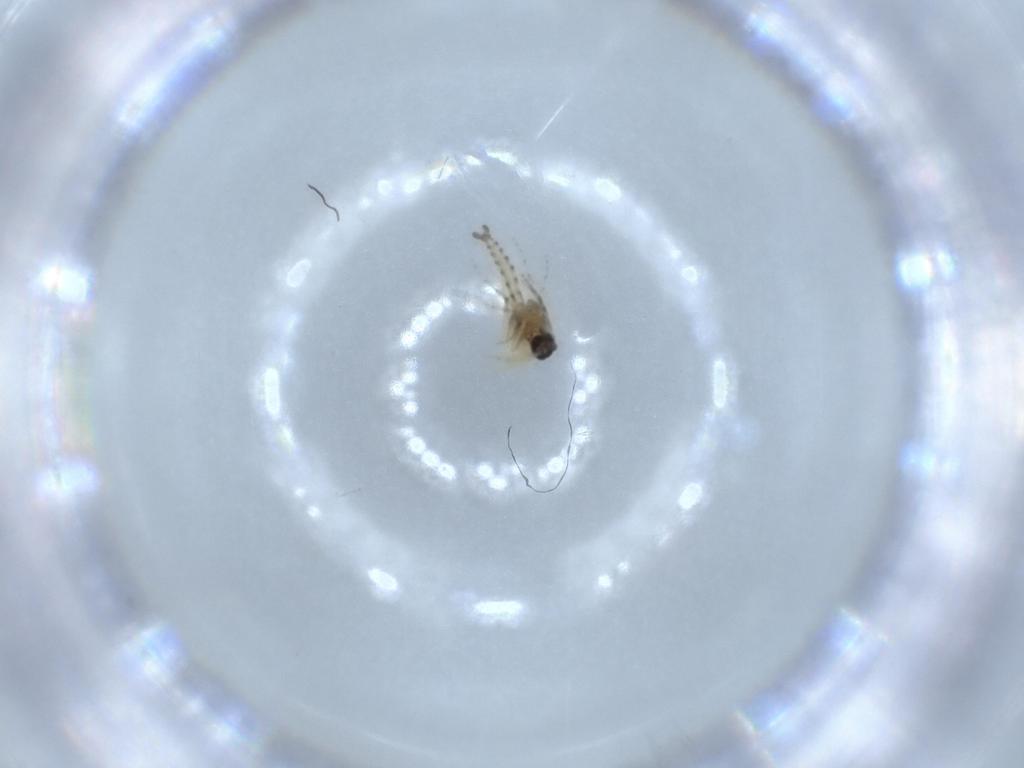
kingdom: Animalia
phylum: Arthropoda
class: Insecta
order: Diptera
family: Ceratopogonidae
